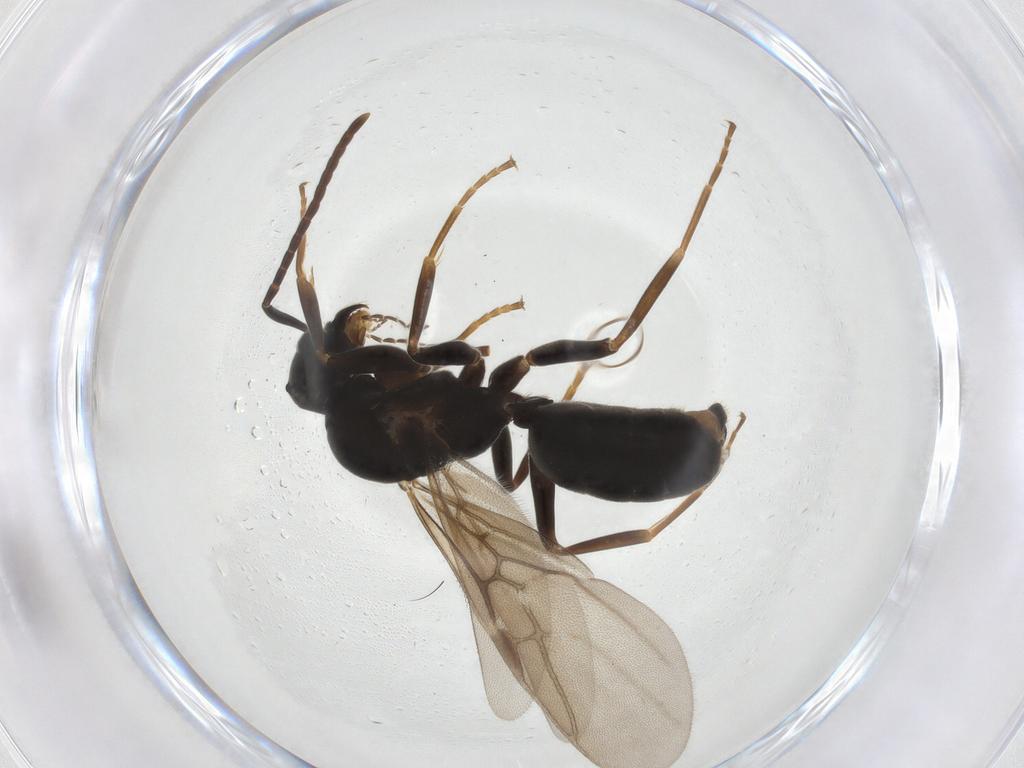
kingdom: Animalia
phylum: Arthropoda
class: Insecta
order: Hymenoptera
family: Formicidae
